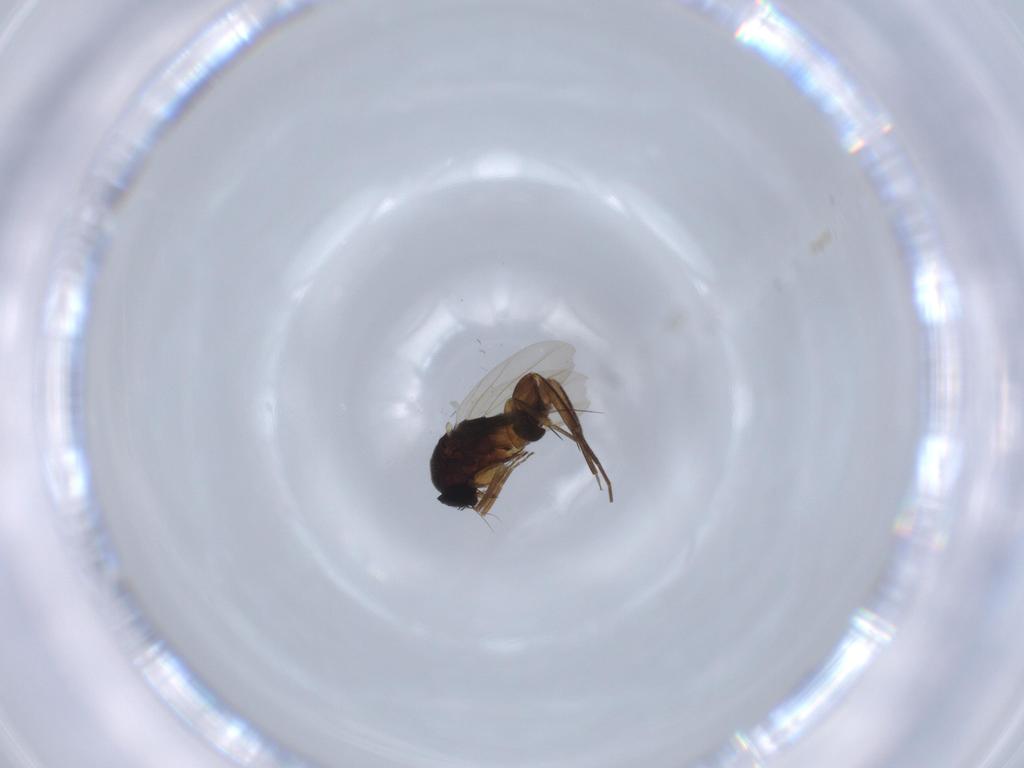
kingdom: Animalia
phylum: Arthropoda
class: Insecta
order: Diptera
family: Phoridae
